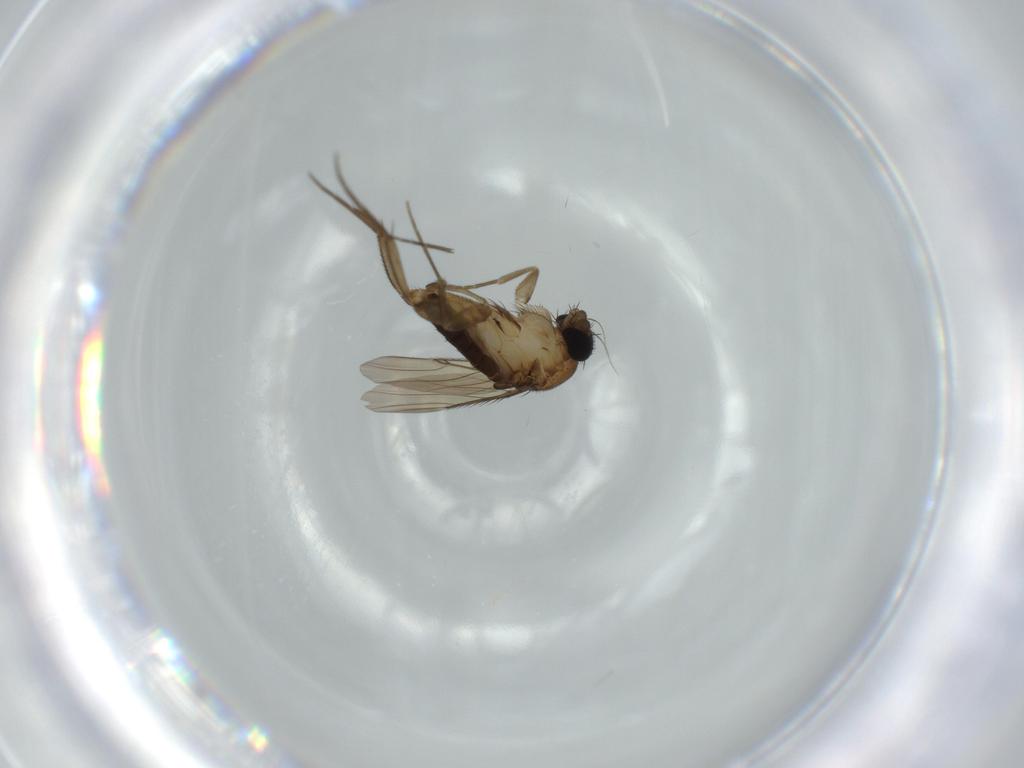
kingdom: Animalia
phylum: Arthropoda
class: Insecta
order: Diptera
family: Phoridae
